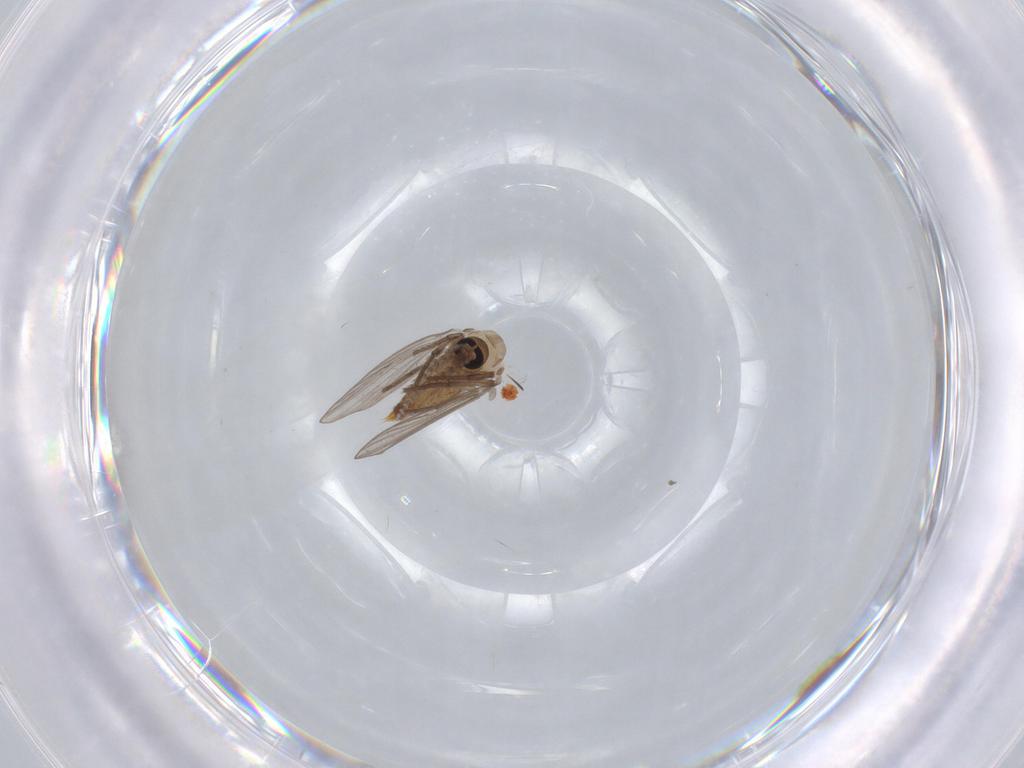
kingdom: Animalia
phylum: Arthropoda
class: Insecta
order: Diptera
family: Psychodidae
